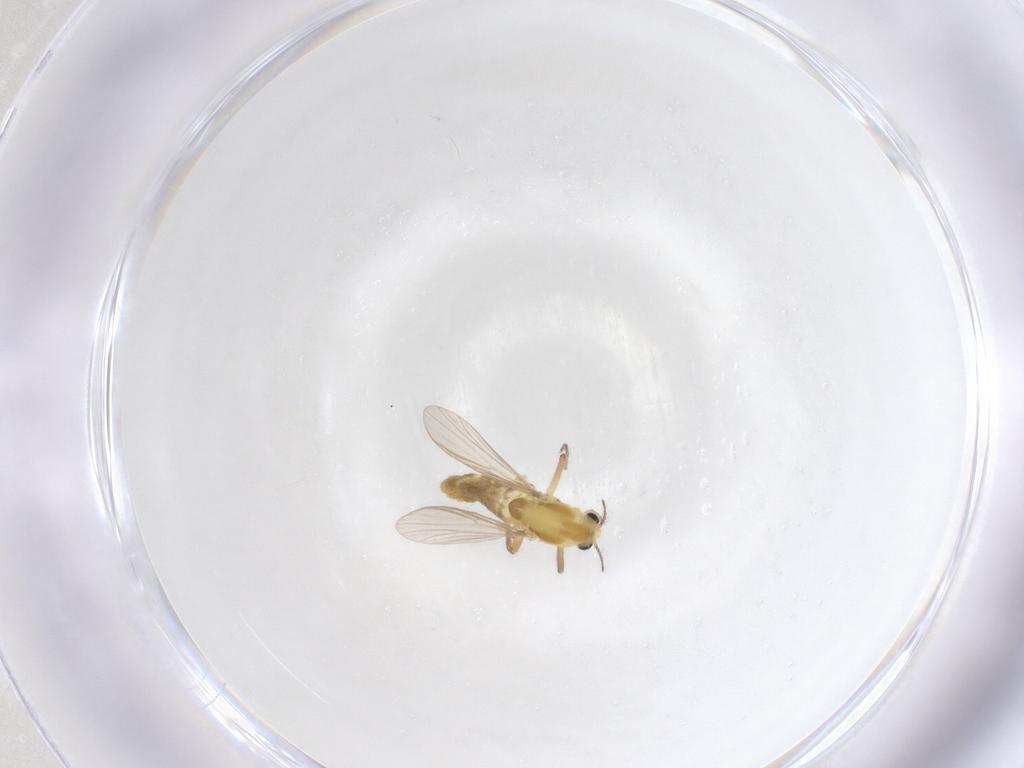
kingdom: Animalia
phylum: Arthropoda
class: Insecta
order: Diptera
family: Chironomidae
